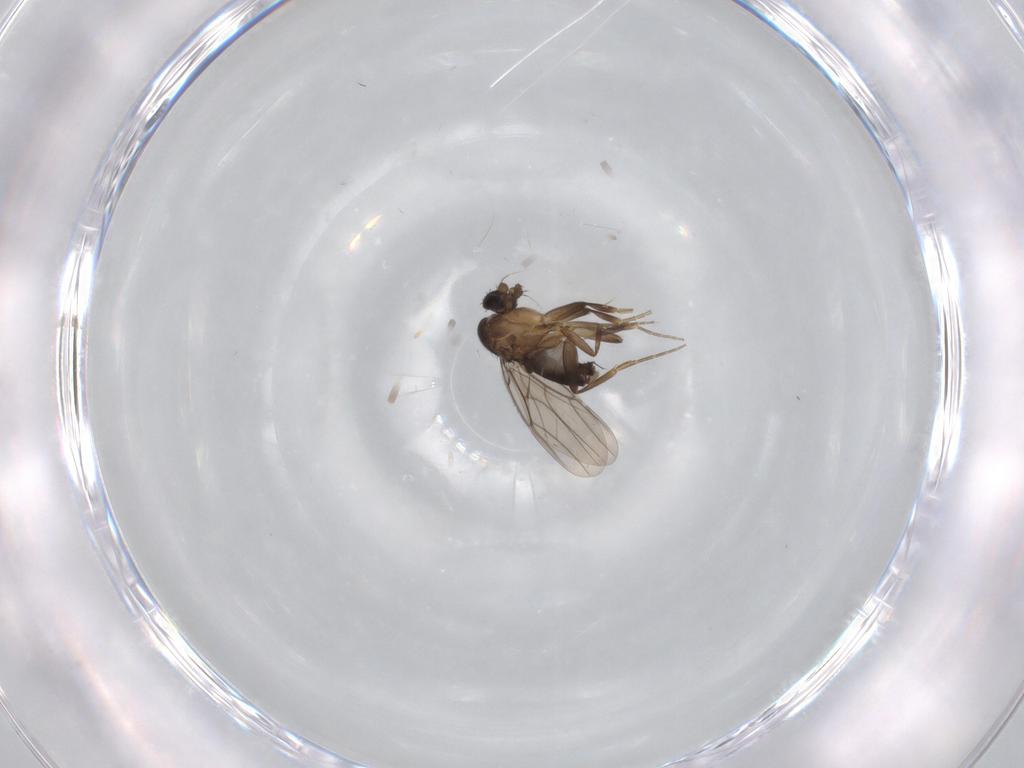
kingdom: Animalia
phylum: Arthropoda
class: Insecta
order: Diptera
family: Phoridae
